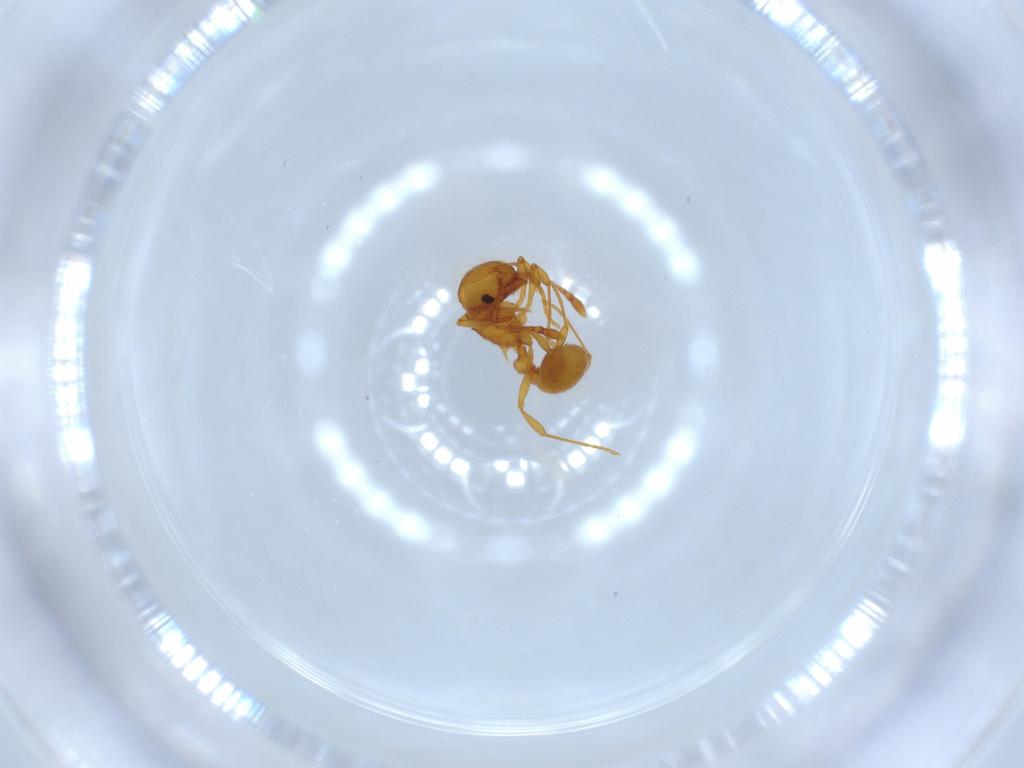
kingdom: Animalia
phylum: Arthropoda
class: Insecta
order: Hymenoptera
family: Formicidae
